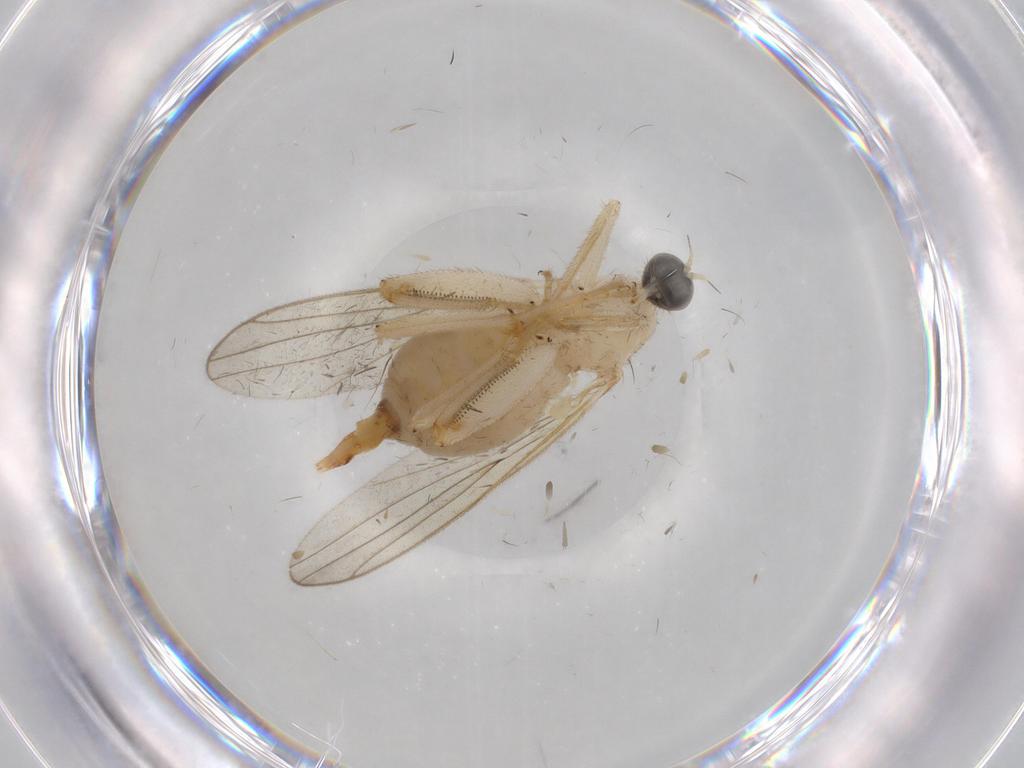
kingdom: Animalia
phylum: Arthropoda
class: Insecta
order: Diptera
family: Hybotidae
